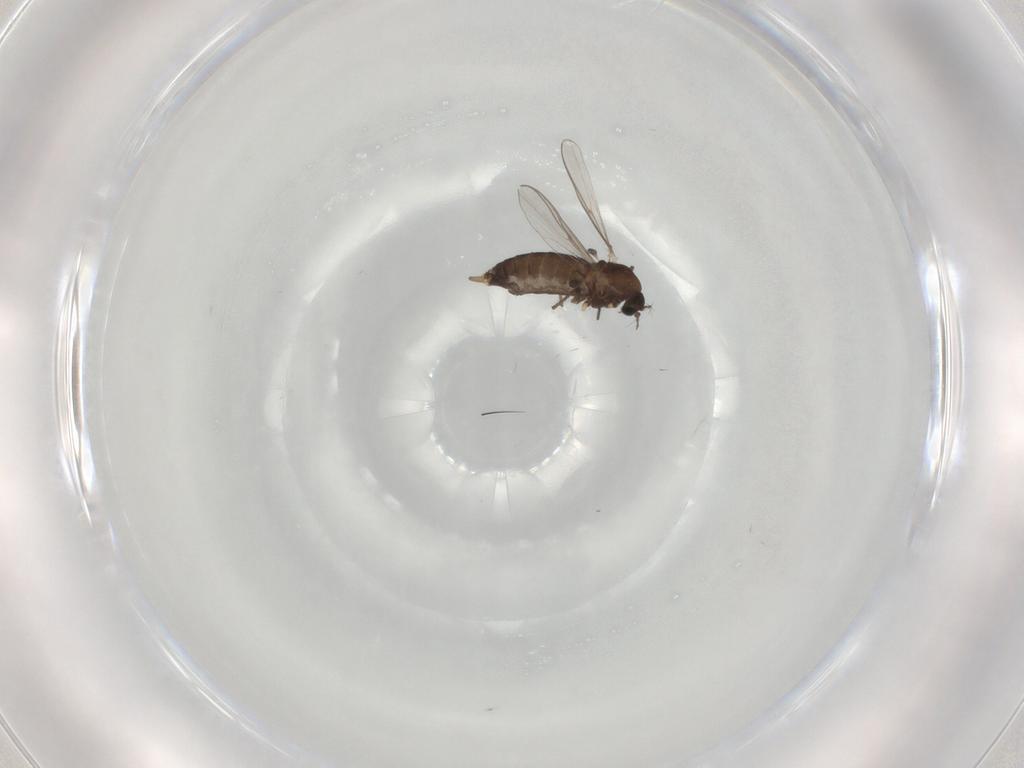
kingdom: Animalia
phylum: Arthropoda
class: Insecta
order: Diptera
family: Chironomidae
